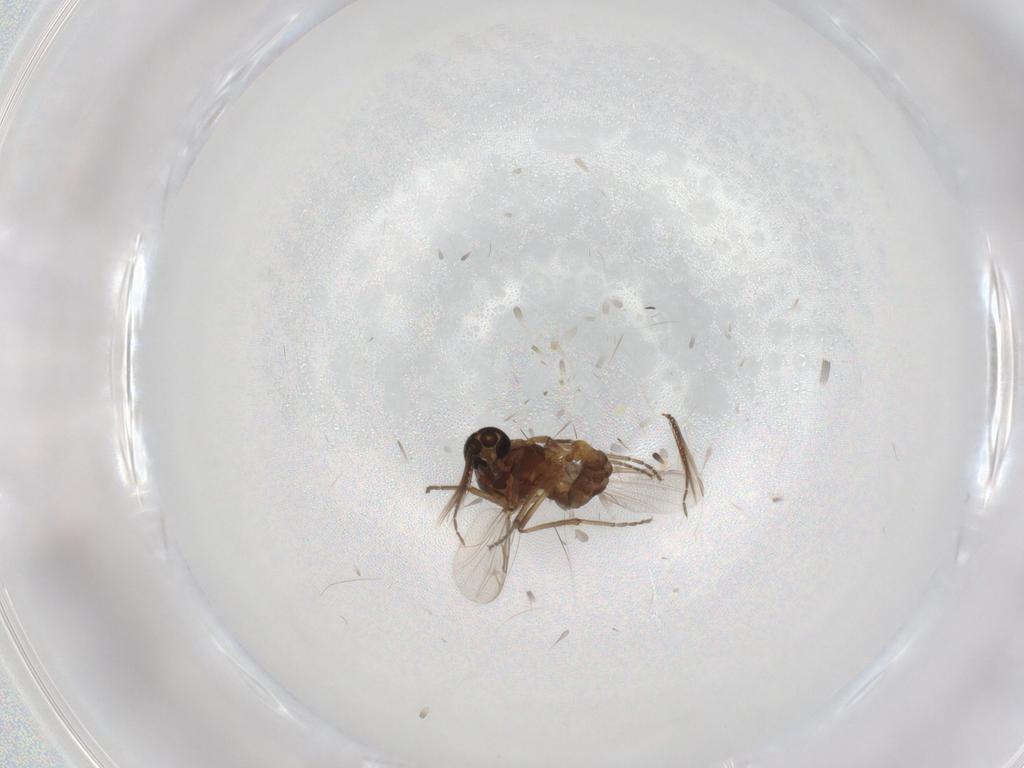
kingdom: Animalia
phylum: Arthropoda
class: Insecta
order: Diptera
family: Ceratopogonidae
